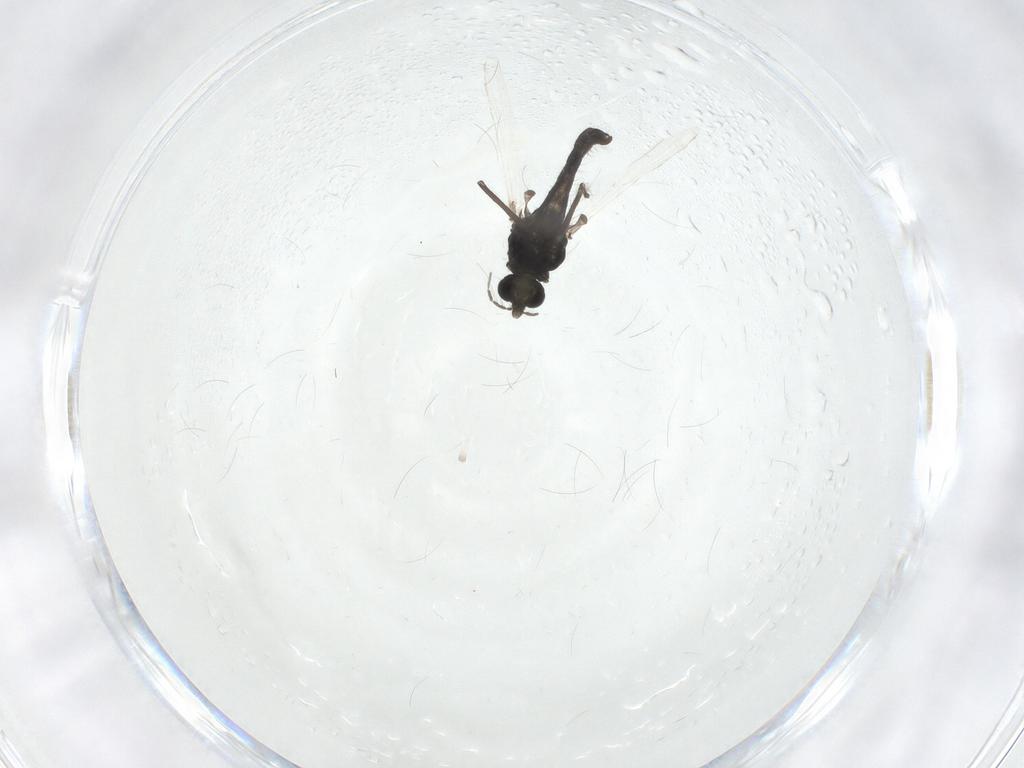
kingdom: Animalia
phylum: Arthropoda
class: Insecta
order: Diptera
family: Chironomidae
